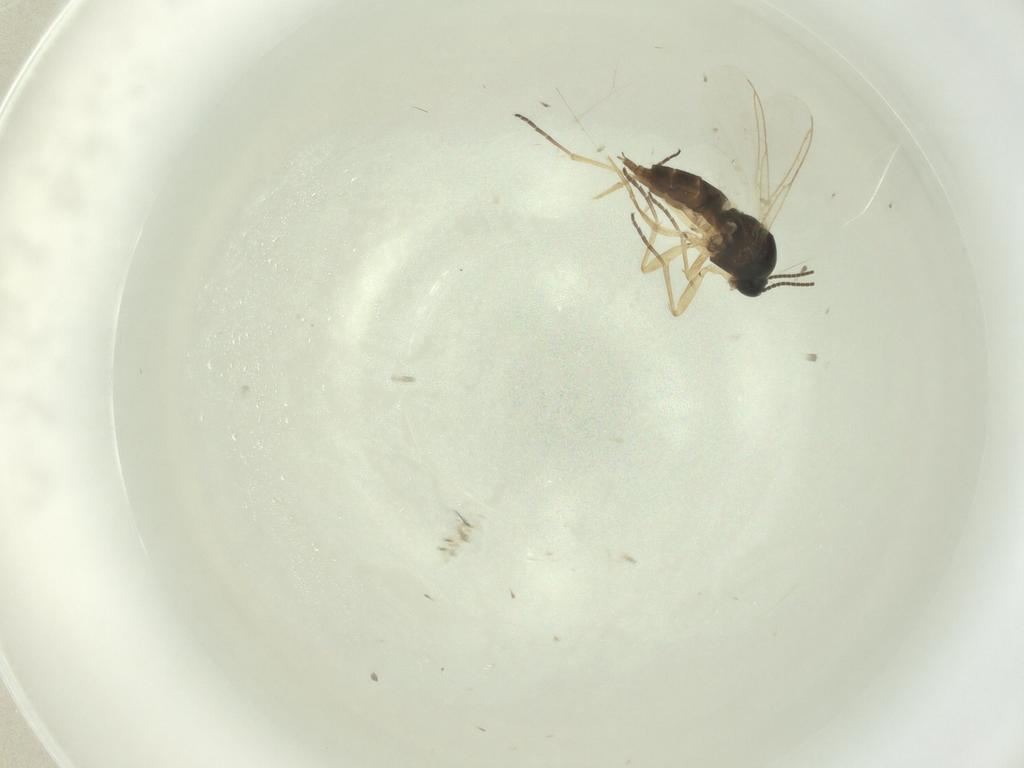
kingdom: Animalia
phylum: Arthropoda
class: Insecta
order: Diptera
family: Sciaridae
